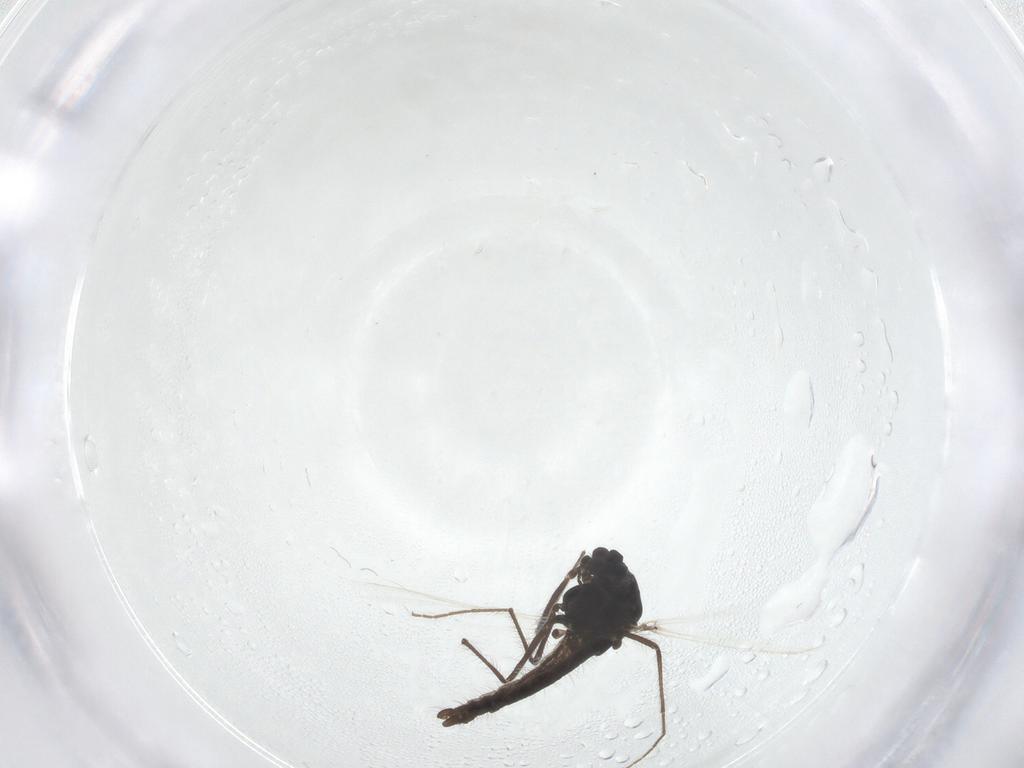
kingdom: Animalia
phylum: Arthropoda
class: Insecta
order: Diptera
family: Chironomidae
